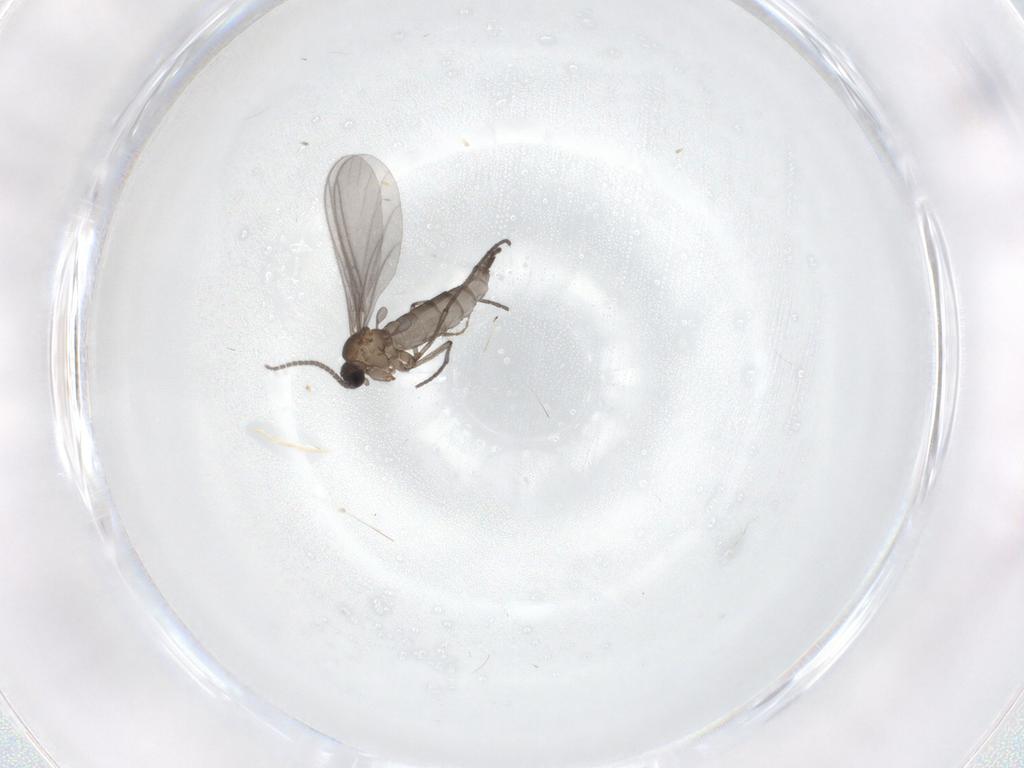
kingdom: Animalia
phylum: Arthropoda
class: Insecta
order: Diptera
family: Sciaridae
